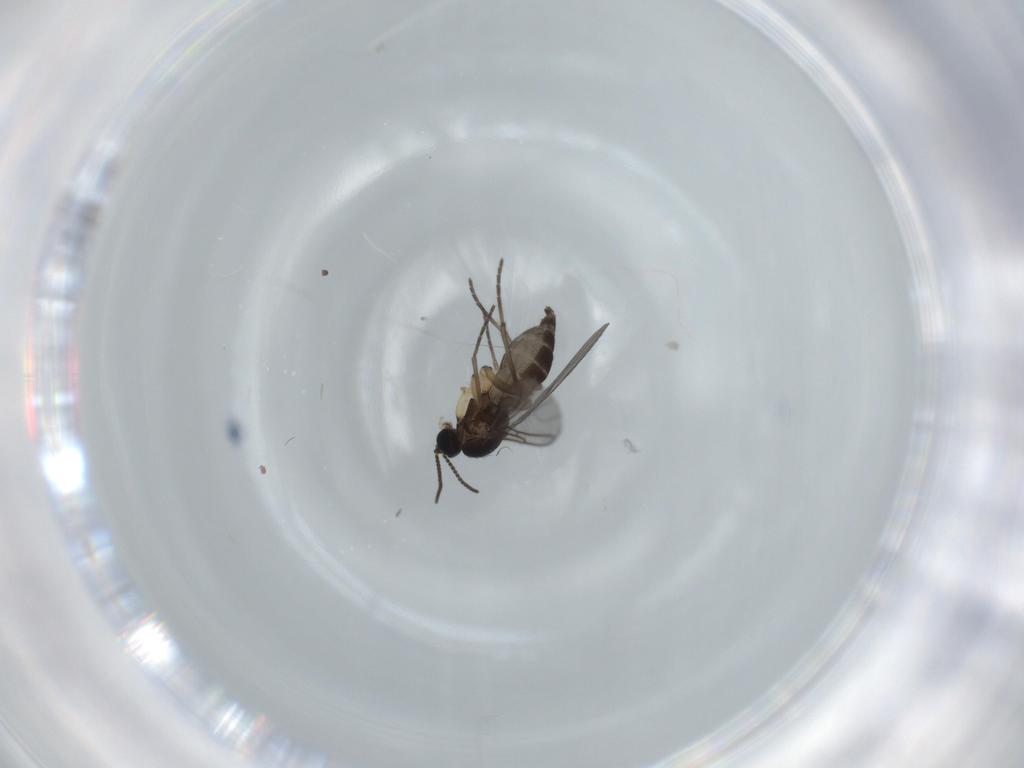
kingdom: Animalia
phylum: Arthropoda
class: Insecta
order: Diptera
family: Sciaridae
